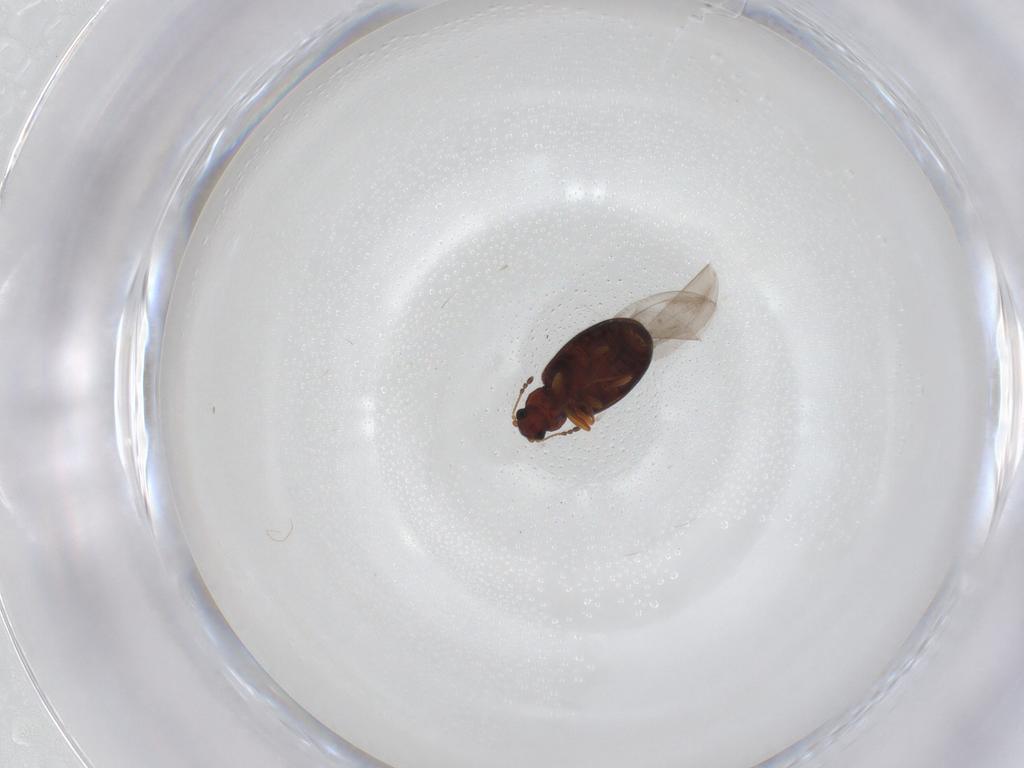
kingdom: Animalia
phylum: Arthropoda
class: Insecta
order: Coleoptera
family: Latridiidae
